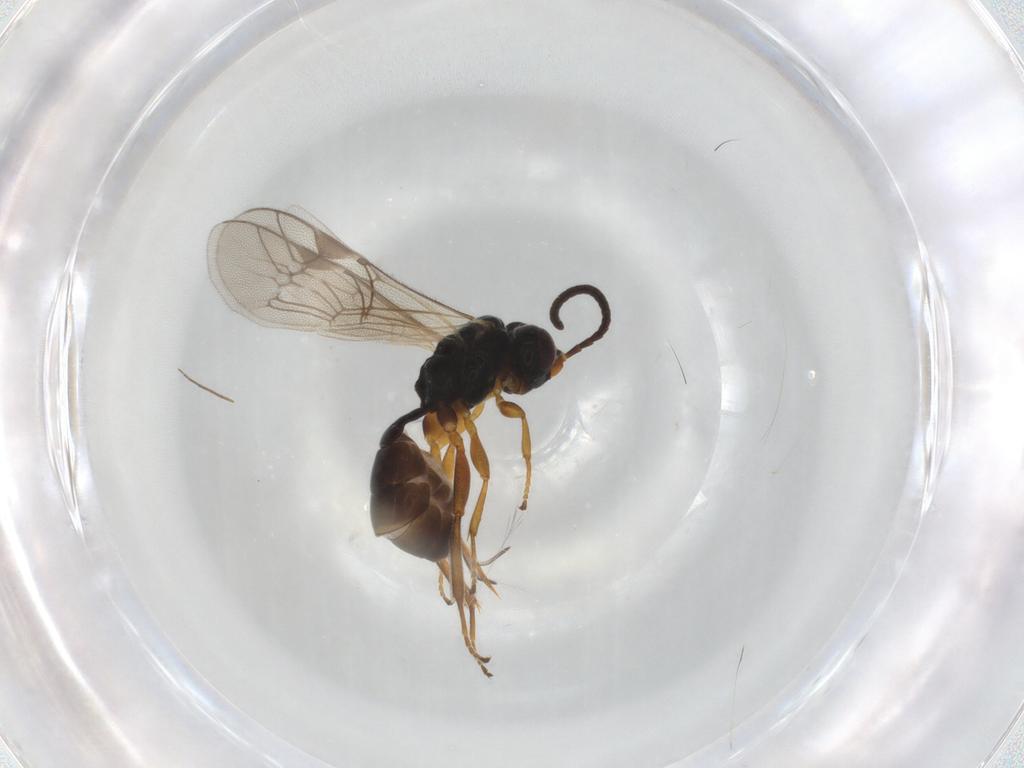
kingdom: Animalia
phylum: Arthropoda
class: Insecta
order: Hymenoptera
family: Ichneumonidae
